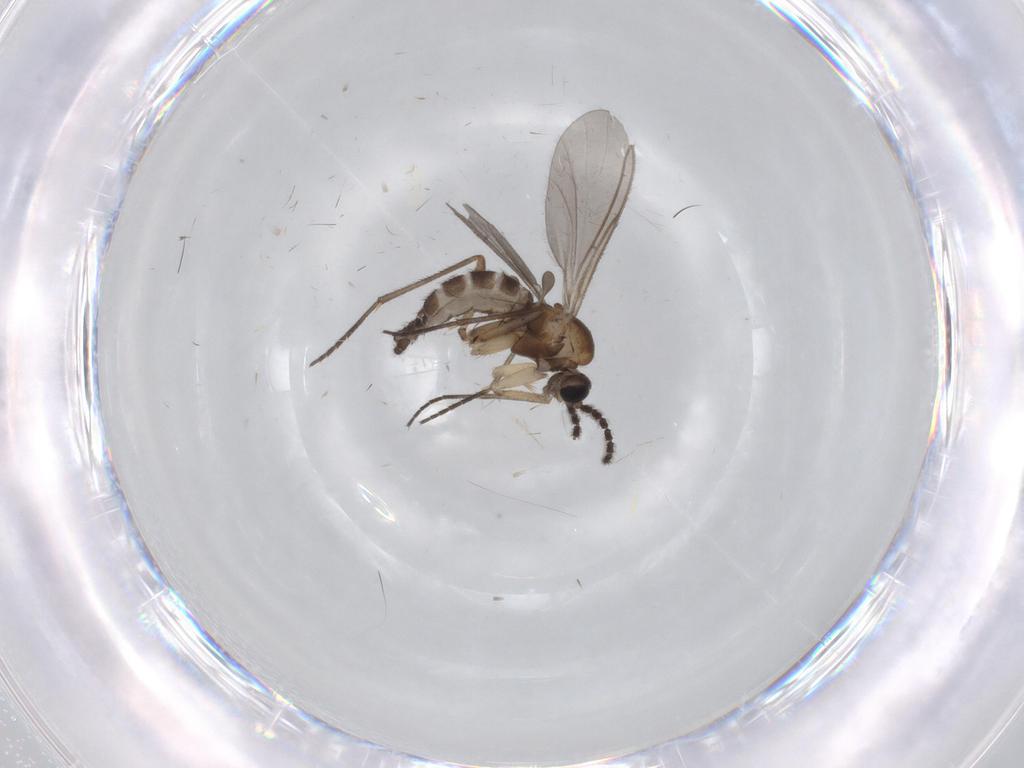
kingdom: Animalia
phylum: Arthropoda
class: Insecta
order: Diptera
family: Sciaridae
